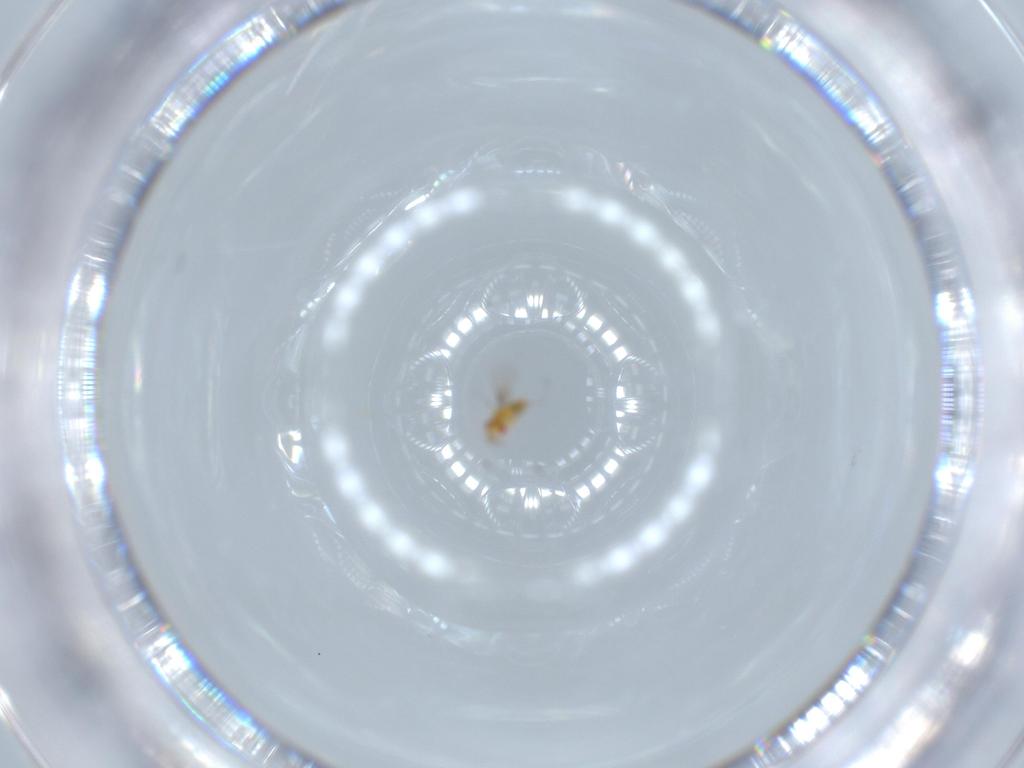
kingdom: Animalia
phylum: Arthropoda
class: Insecta
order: Hymenoptera
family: Trichogrammatidae
